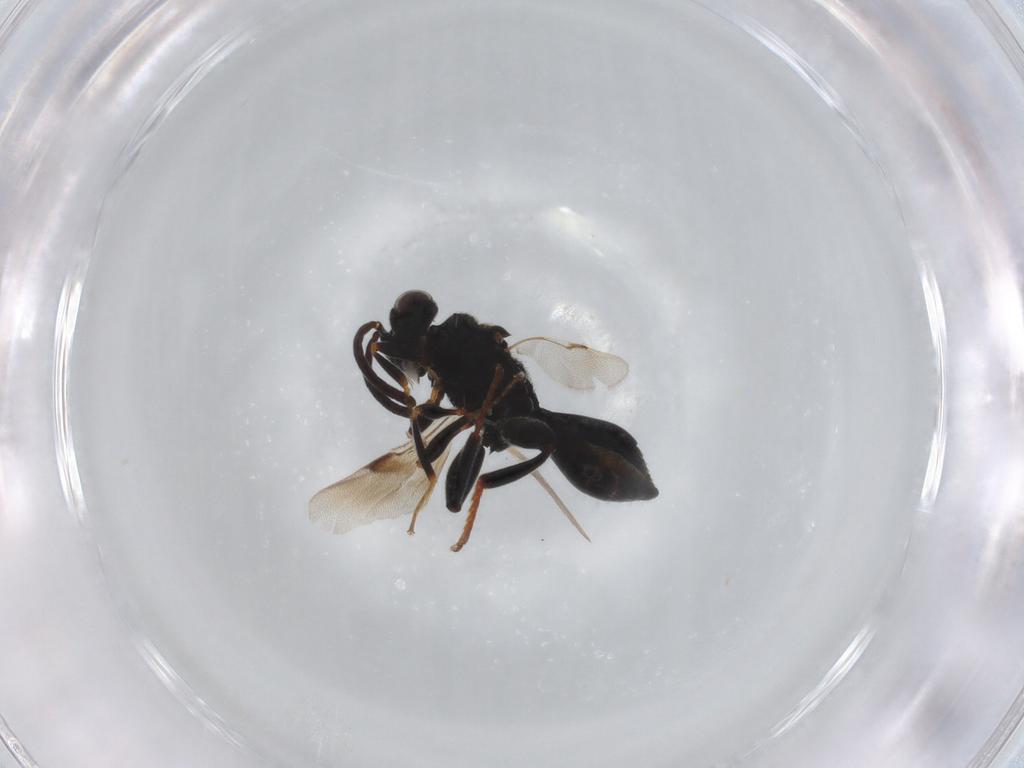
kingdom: Animalia
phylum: Arthropoda
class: Insecta
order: Hymenoptera
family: Chalcididae
